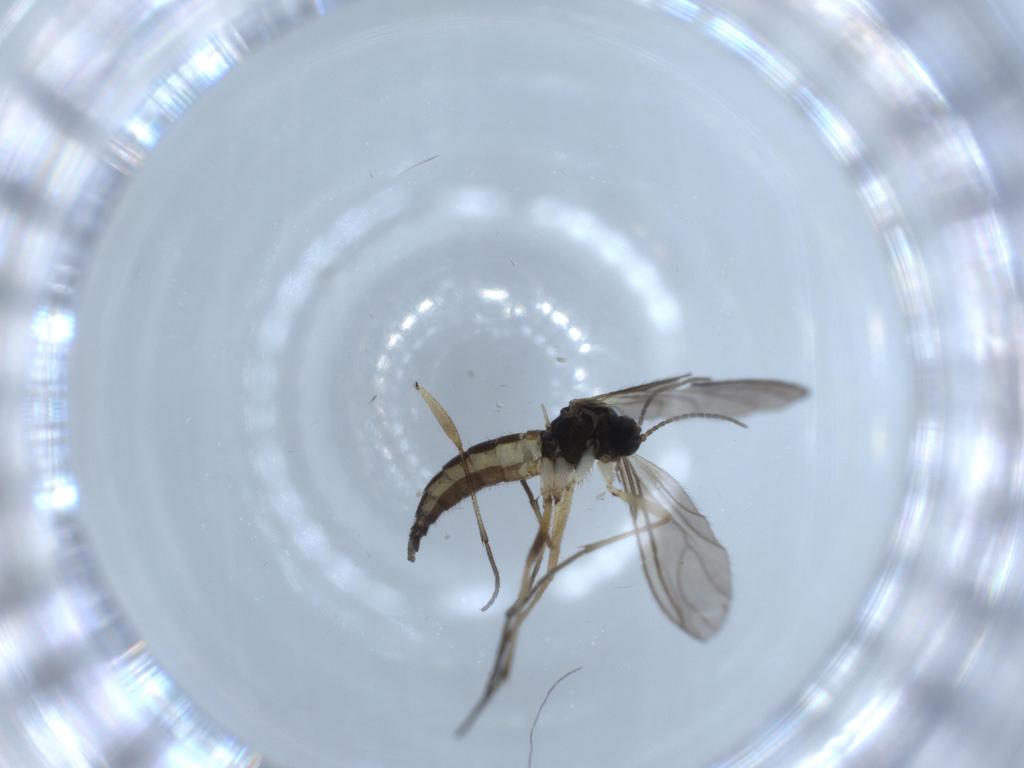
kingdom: Animalia
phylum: Arthropoda
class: Insecta
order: Diptera
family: Sciaridae
